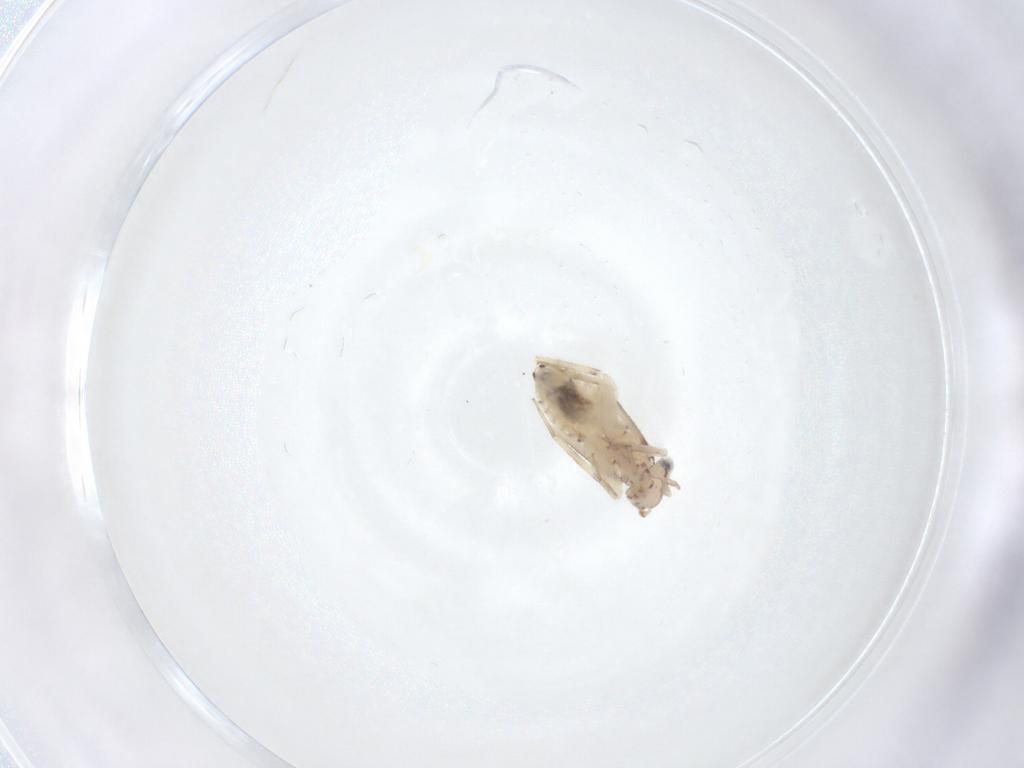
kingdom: Animalia
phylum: Arthropoda
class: Insecta
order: Psocodea
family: Lepidopsocidae
